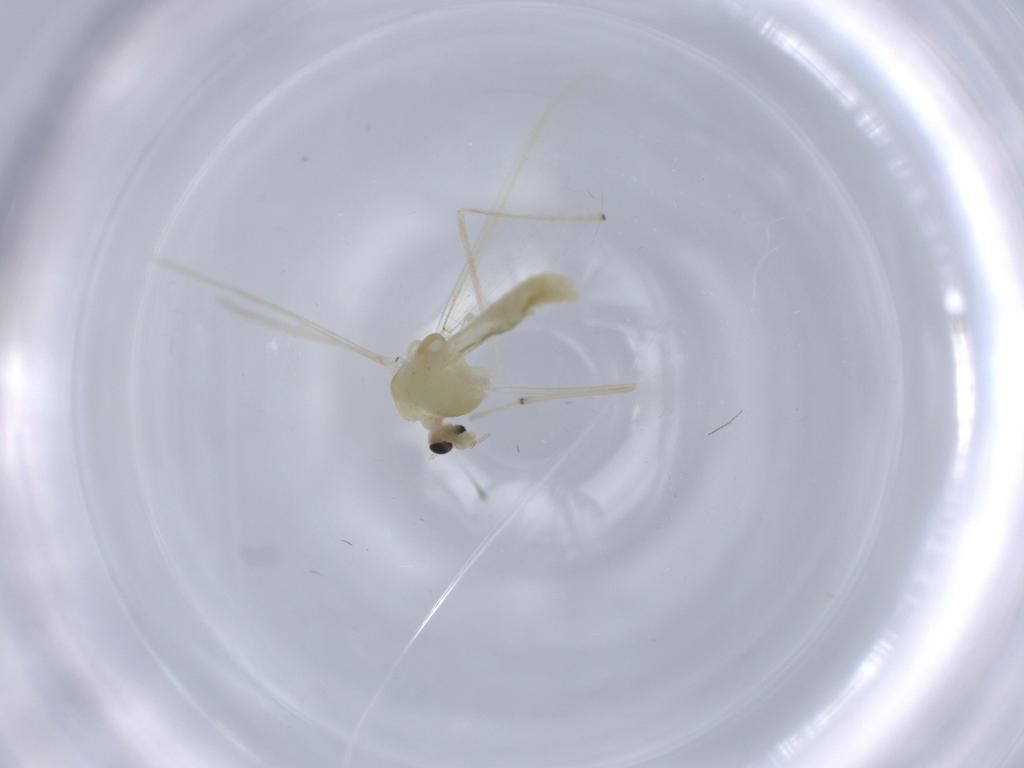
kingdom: Animalia
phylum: Arthropoda
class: Insecta
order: Diptera
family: Chironomidae
